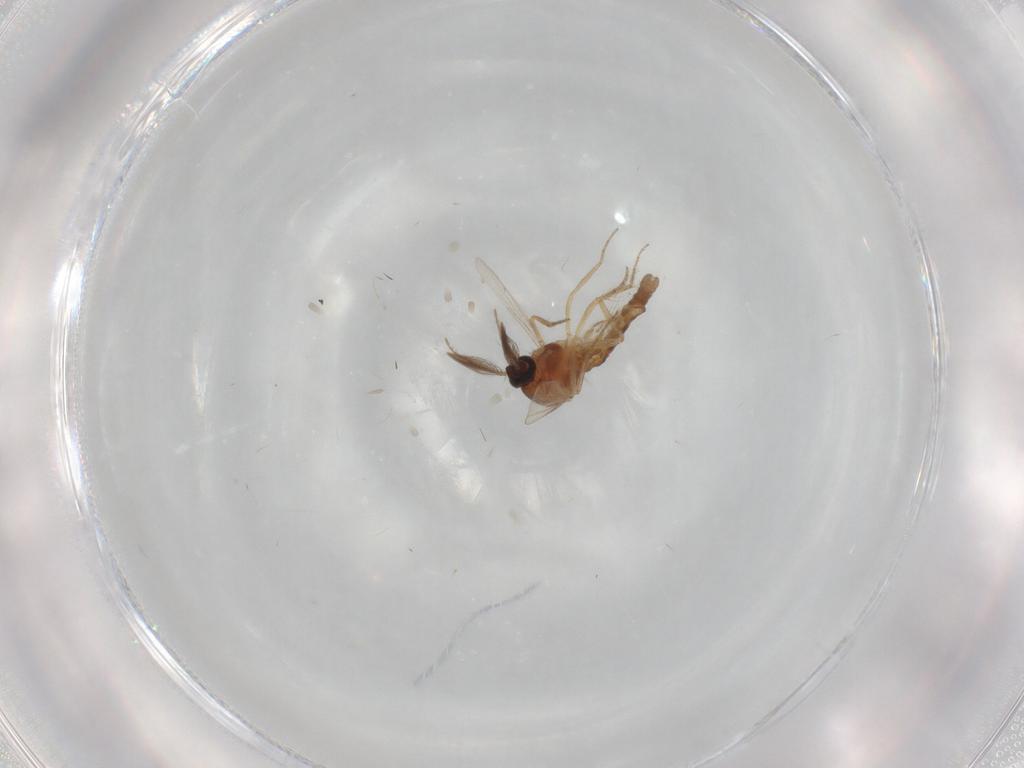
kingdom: Animalia
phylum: Arthropoda
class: Insecta
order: Diptera
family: Ceratopogonidae
